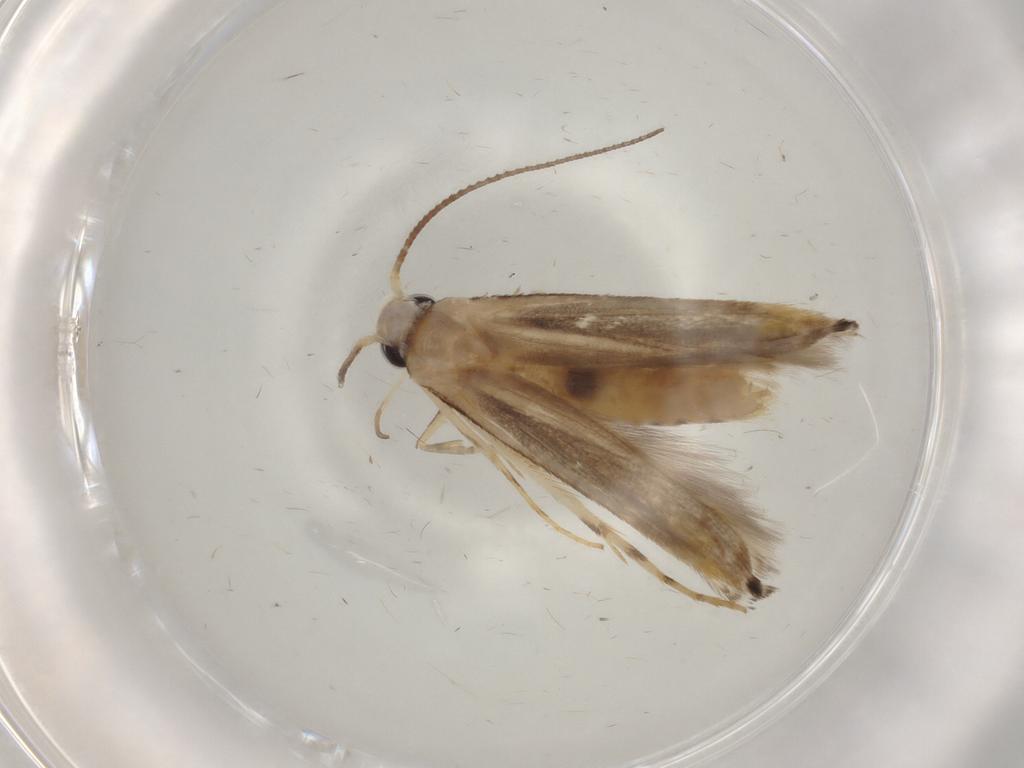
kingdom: Animalia
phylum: Arthropoda
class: Insecta
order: Lepidoptera
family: Gelechiidae
